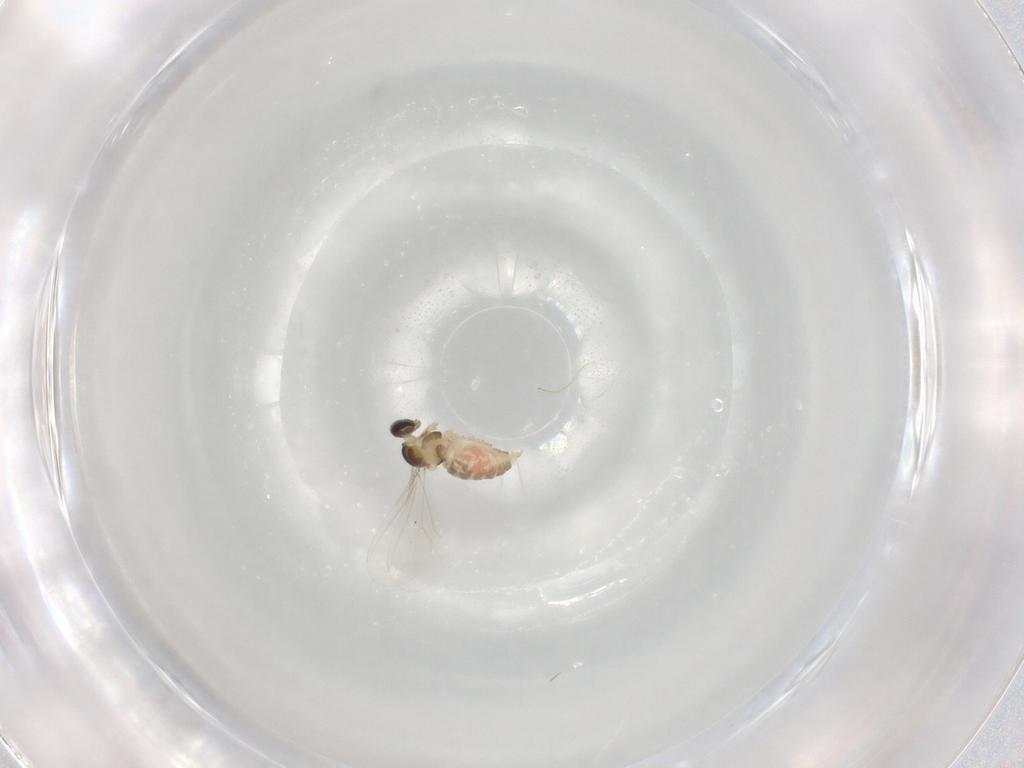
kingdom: Animalia
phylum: Arthropoda
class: Insecta
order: Diptera
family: Cecidomyiidae
